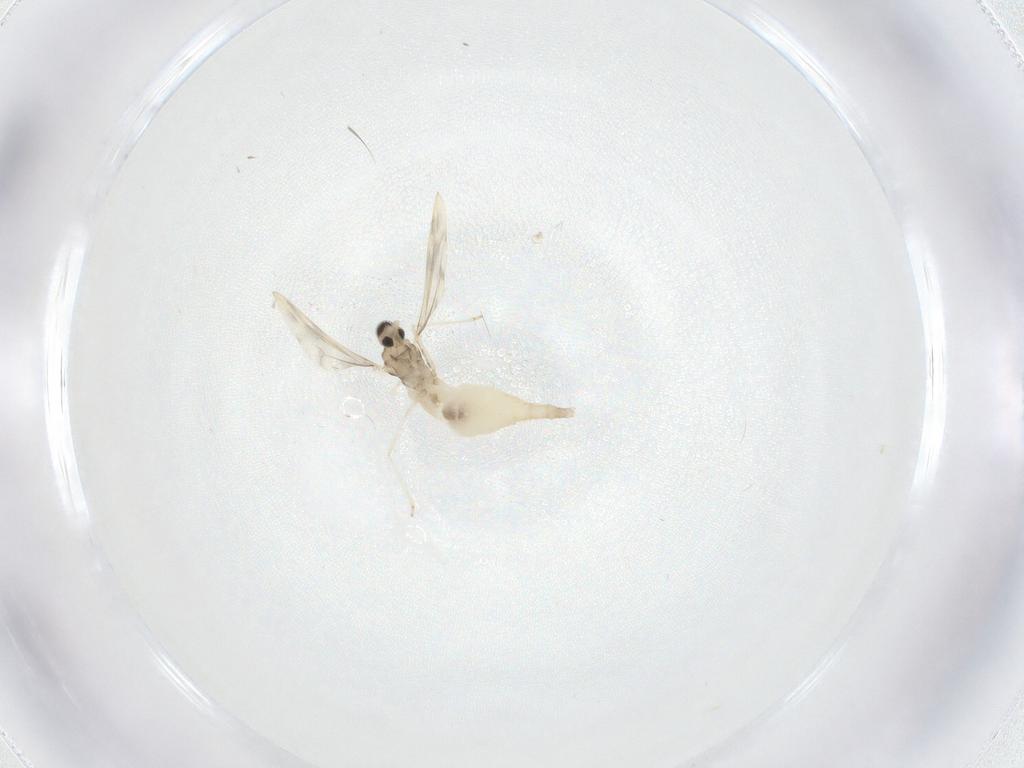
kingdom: Animalia
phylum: Arthropoda
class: Insecta
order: Diptera
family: Cecidomyiidae
